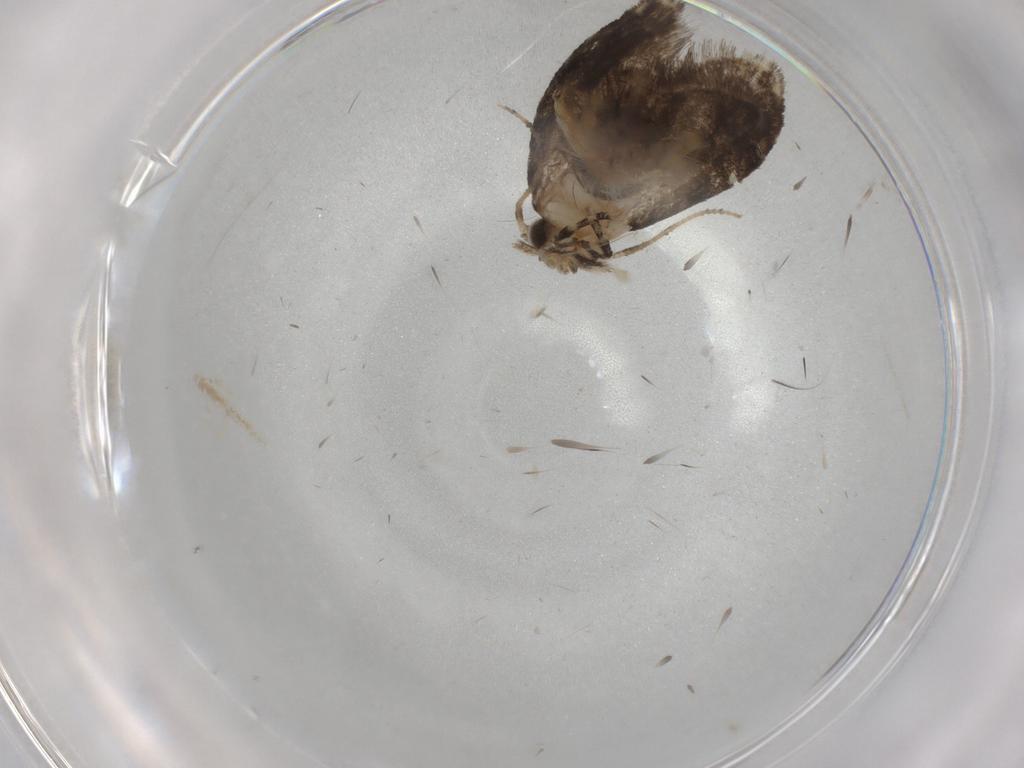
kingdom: Animalia
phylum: Arthropoda
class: Insecta
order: Lepidoptera
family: Tineidae
